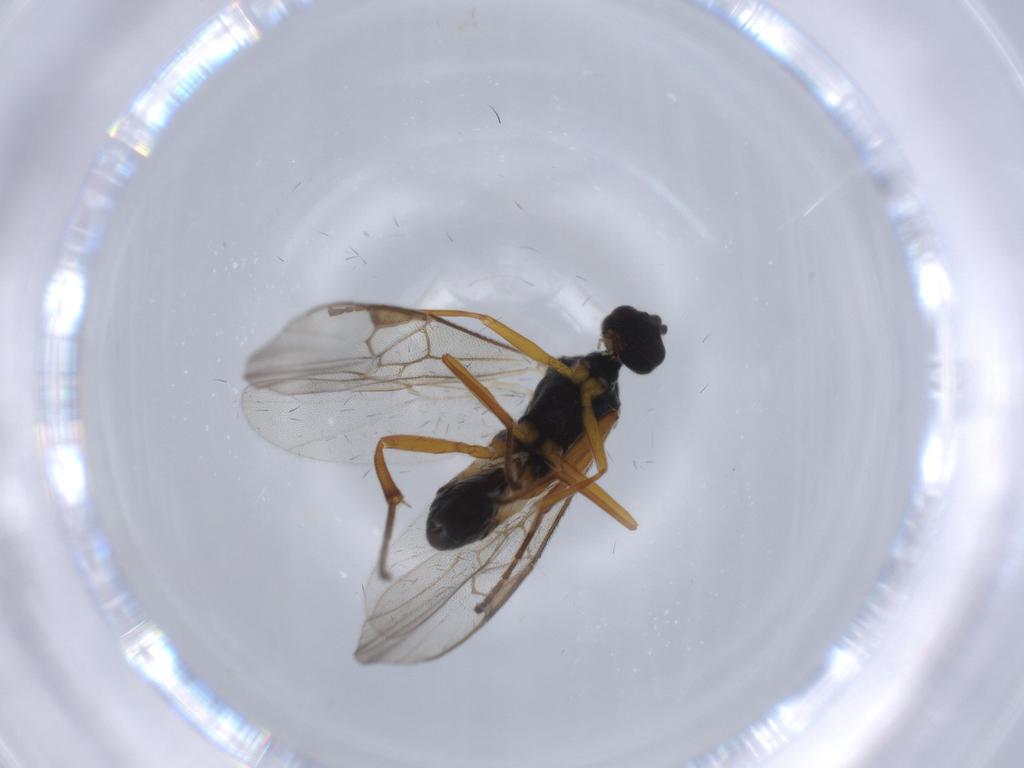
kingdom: Animalia
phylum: Arthropoda
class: Insecta
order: Hymenoptera
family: Braconidae
